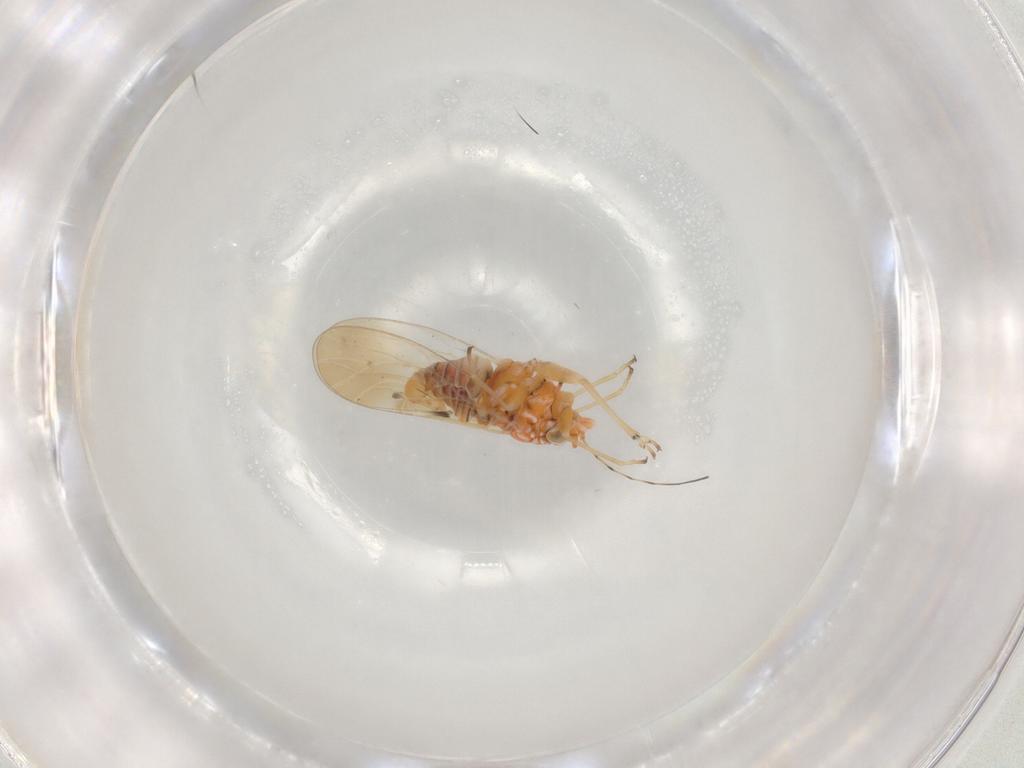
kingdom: Animalia
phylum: Arthropoda
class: Insecta
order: Hemiptera
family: Psyllidae
